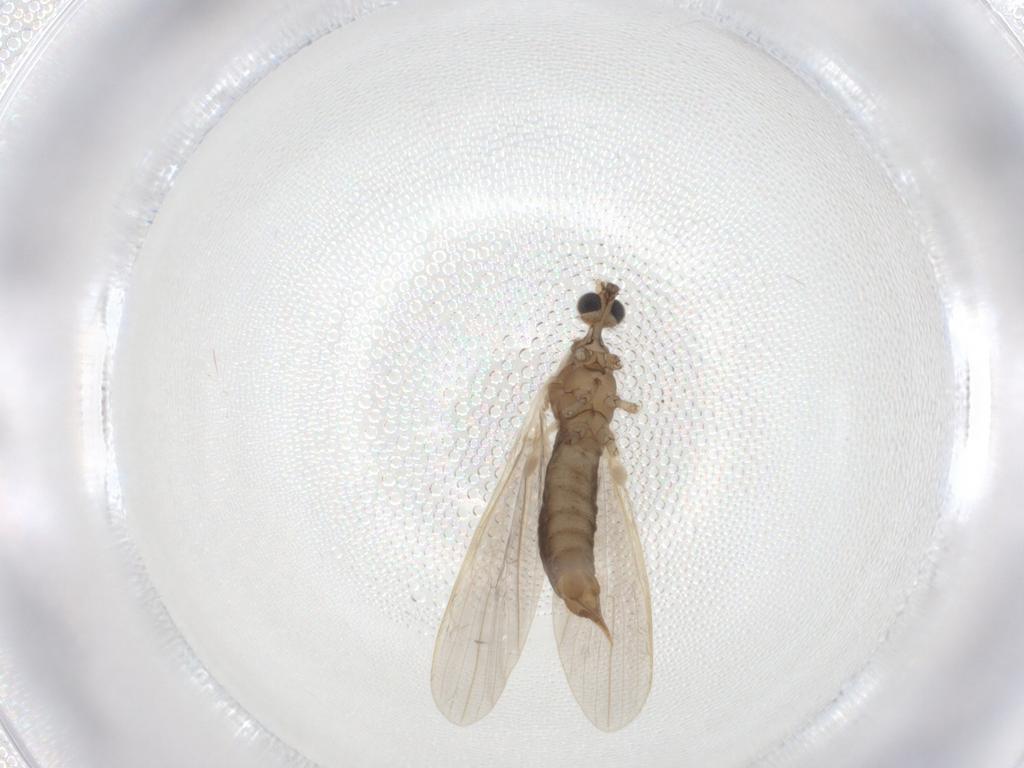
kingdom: Animalia
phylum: Arthropoda
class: Insecta
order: Diptera
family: Limoniidae
